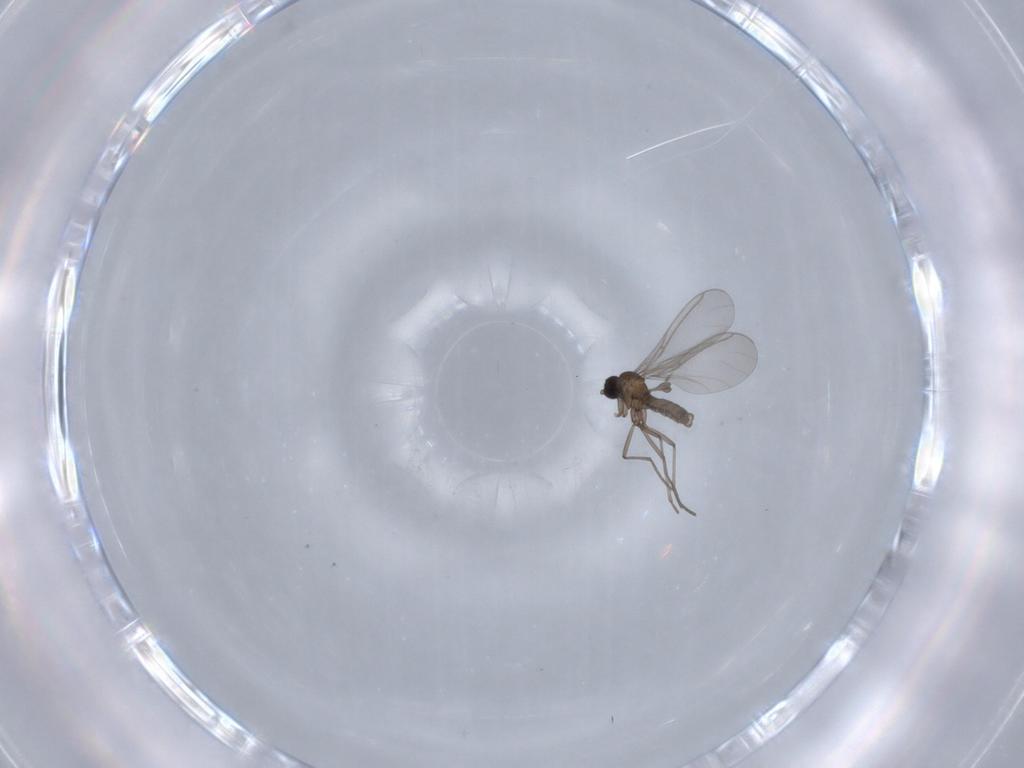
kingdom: Animalia
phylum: Arthropoda
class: Insecta
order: Diptera
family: Sciaridae
